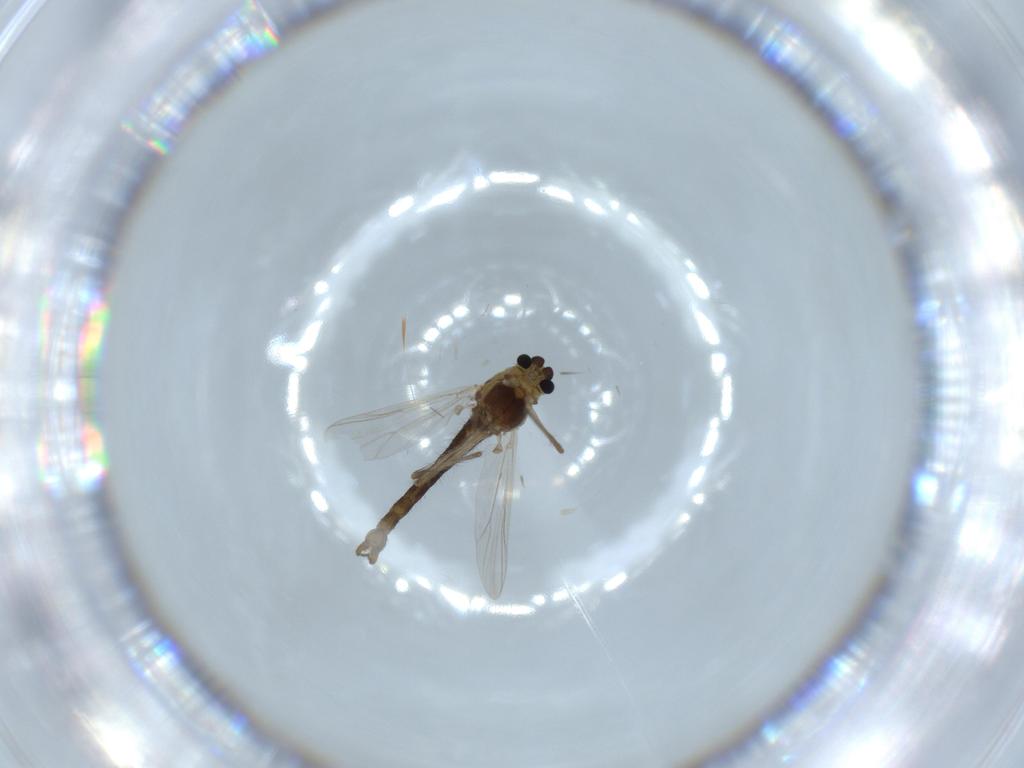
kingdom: Animalia
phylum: Arthropoda
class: Insecta
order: Diptera
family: Chironomidae
